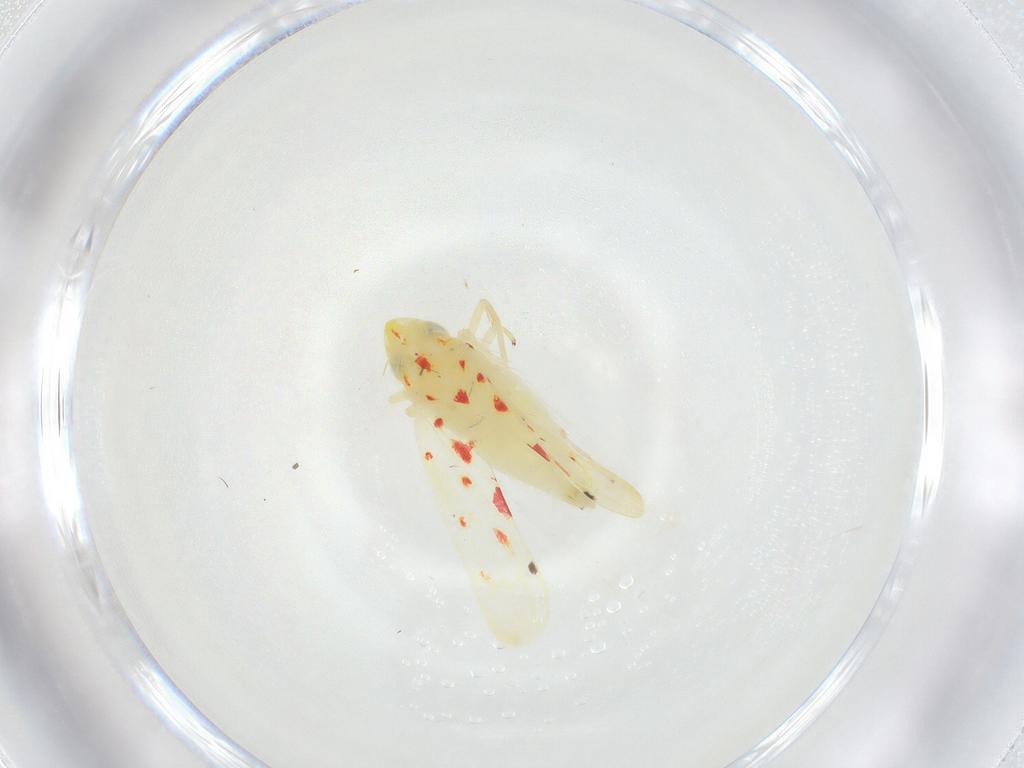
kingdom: Animalia
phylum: Arthropoda
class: Insecta
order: Hemiptera
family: Cicadellidae
